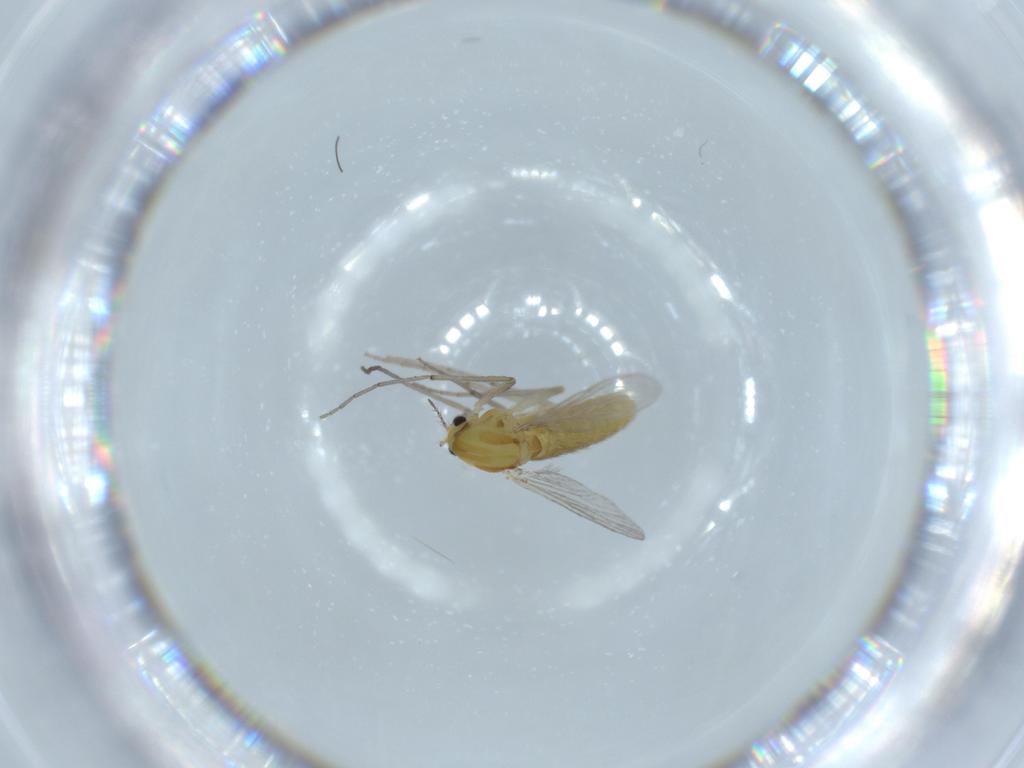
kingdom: Animalia
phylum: Arthropoda
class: Insecta
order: Diptera
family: Chironomidae
